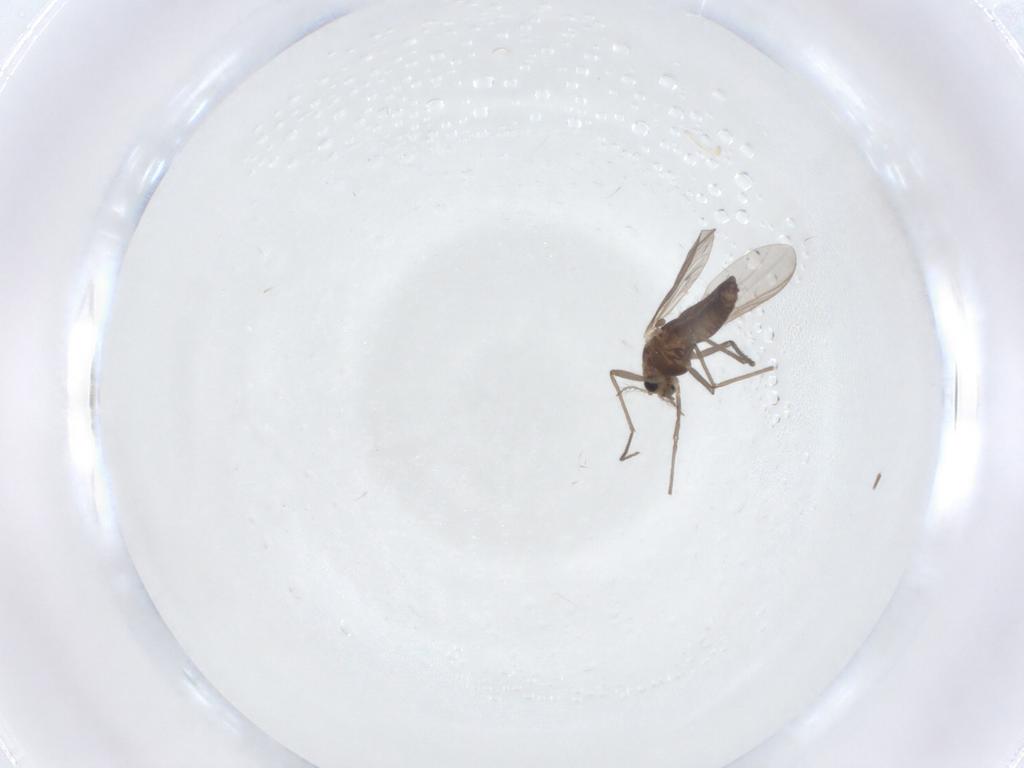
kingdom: Animalia
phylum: Arthropoda
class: Insecta
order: Diptera
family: Chironomidae
